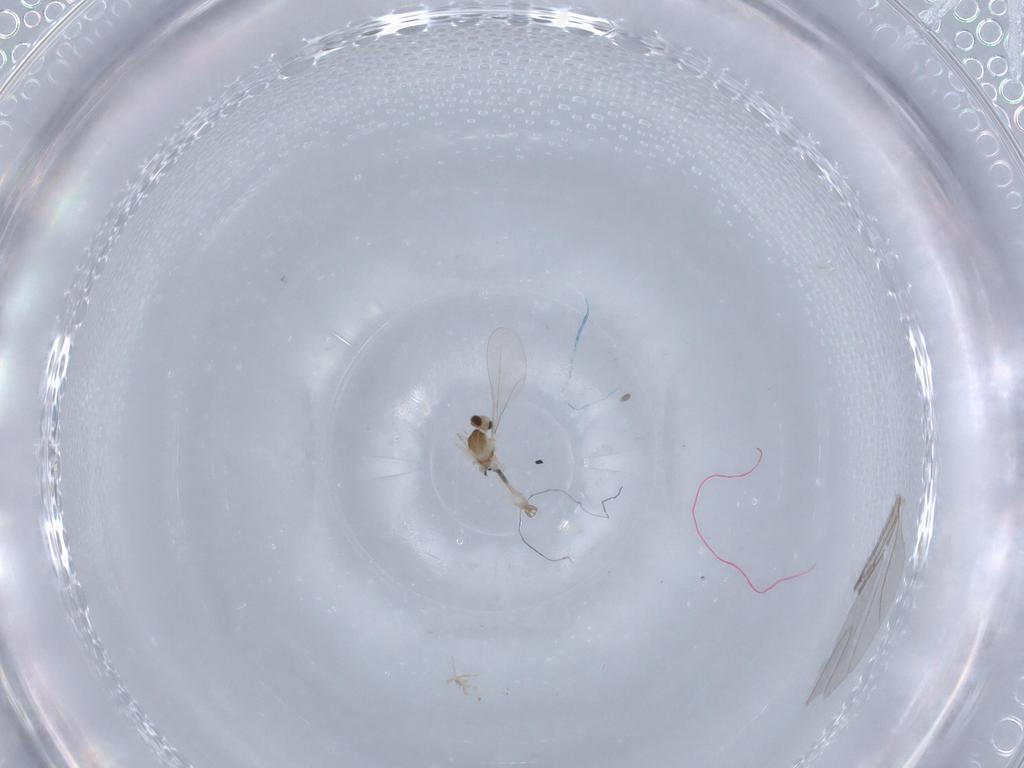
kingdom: Animalia
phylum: Arthropoda
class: Insecta
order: Diptera
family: Cecidomyiidae
